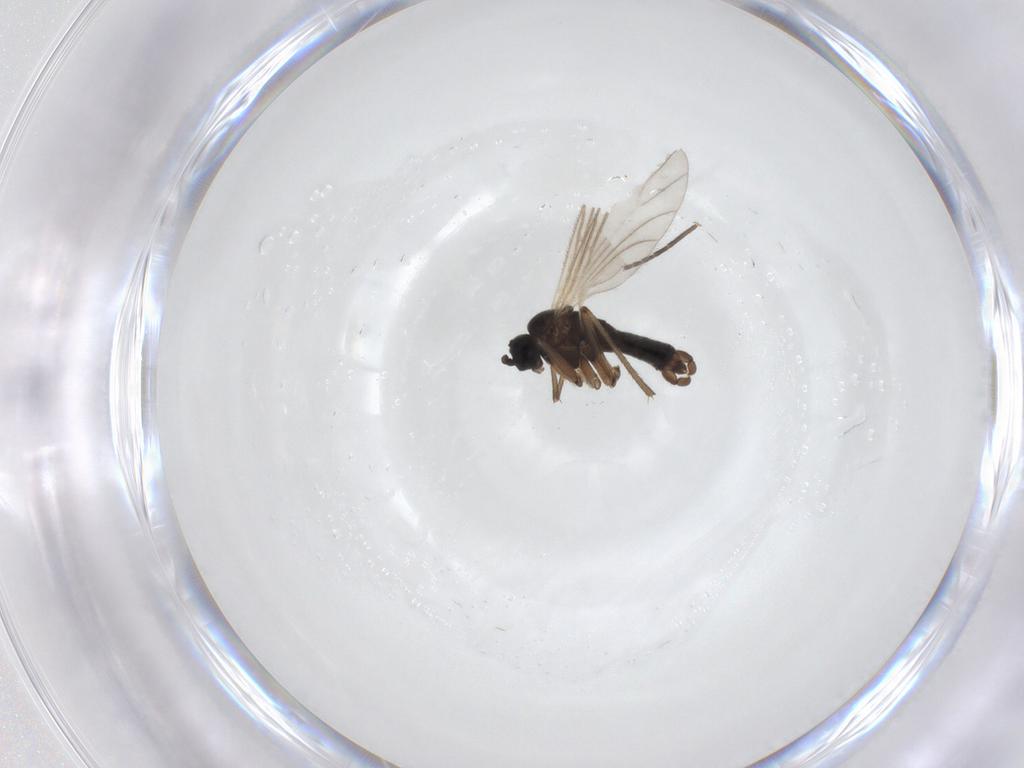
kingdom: Animalia
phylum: Arthropoda
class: Insecta
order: Diptera
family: Sciaridae
